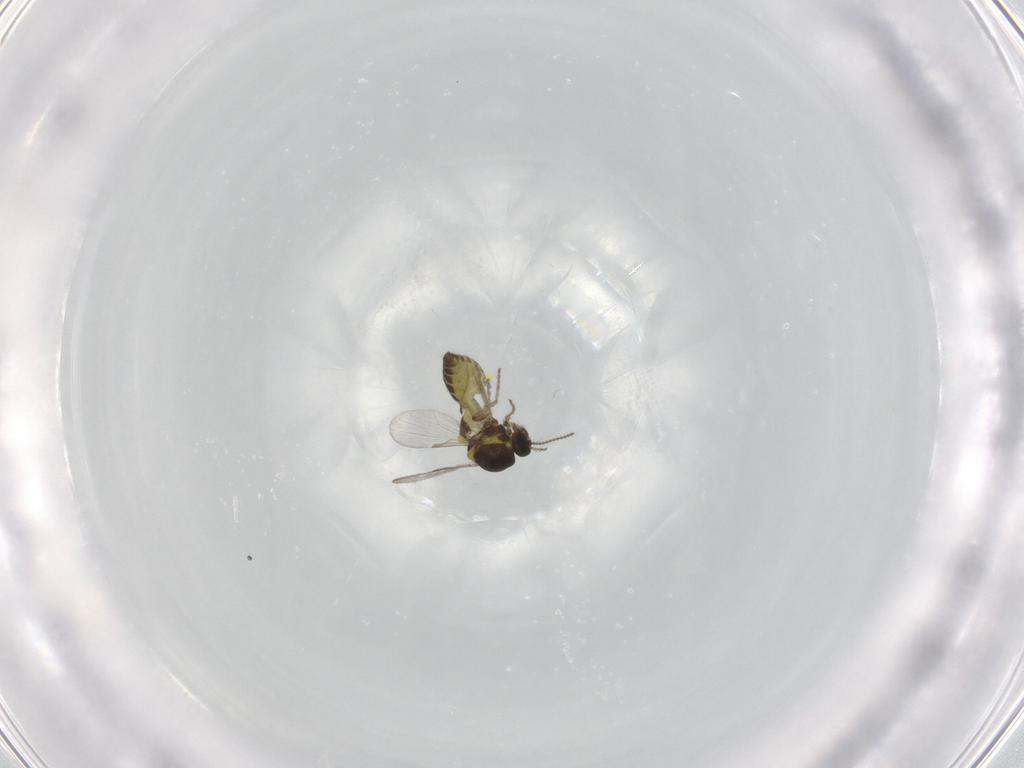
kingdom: Animalia
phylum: Arthropoda
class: Insecta
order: Diptera
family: Ceratopogonidae
